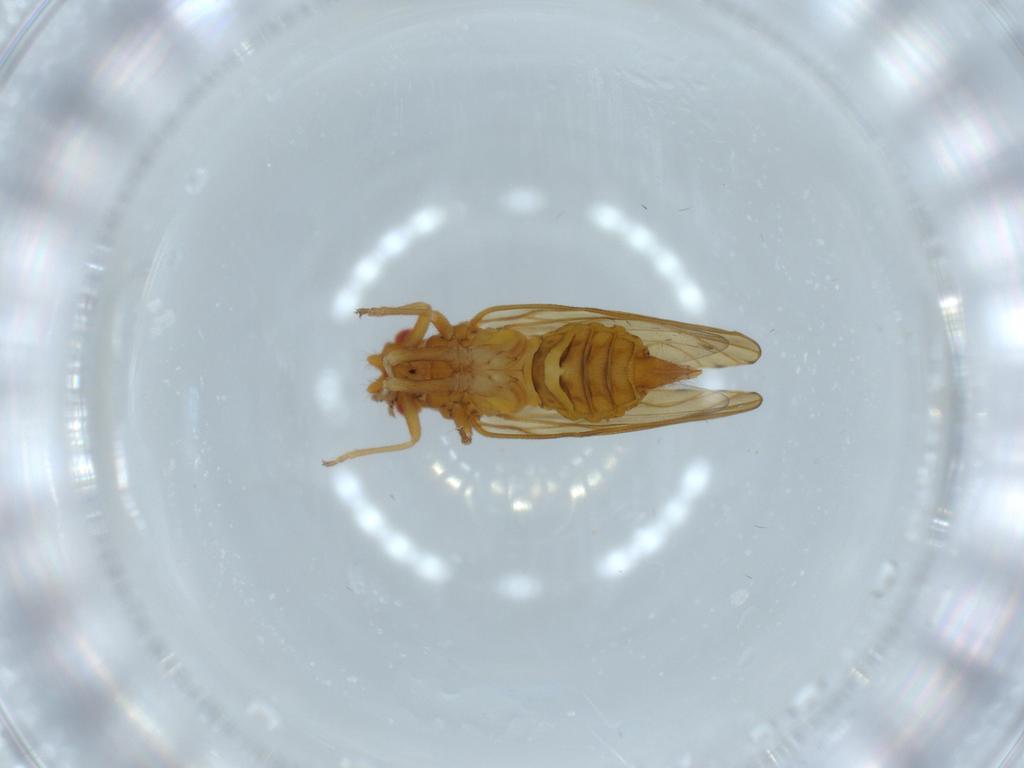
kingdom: Animalia
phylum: Arthropoda
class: Insecta
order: Hemiptera
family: Psylloidea_incertae_sedis
